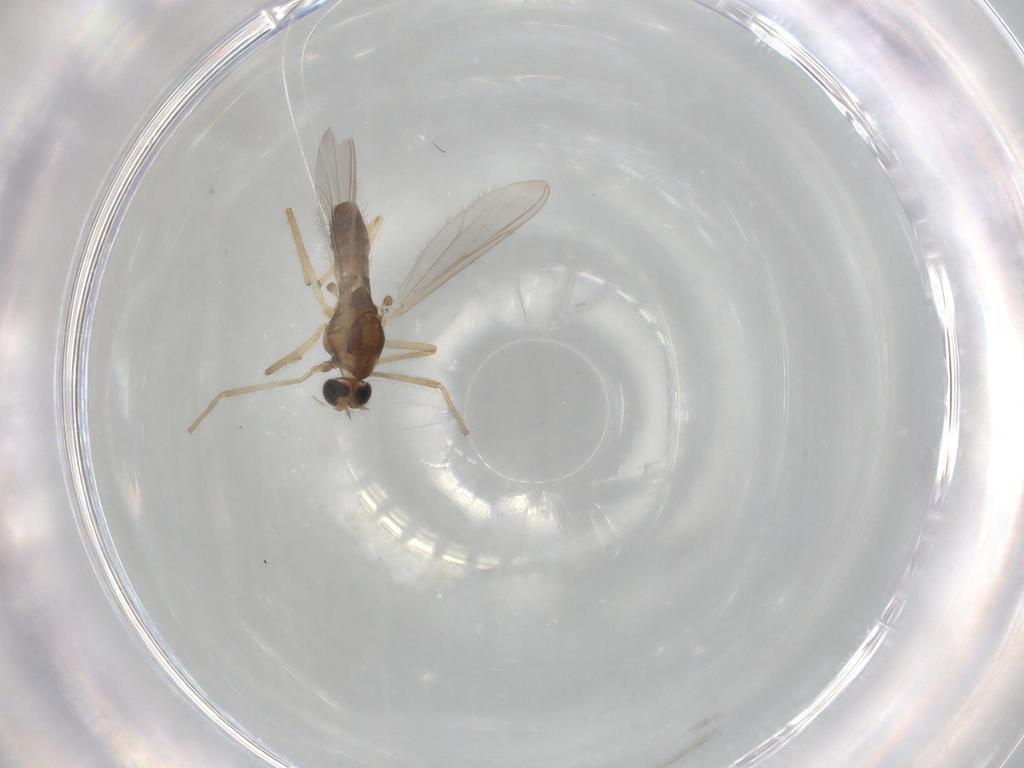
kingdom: Animalia
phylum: Arthropoda
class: Insecta
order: Diptera
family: Chironomidae
